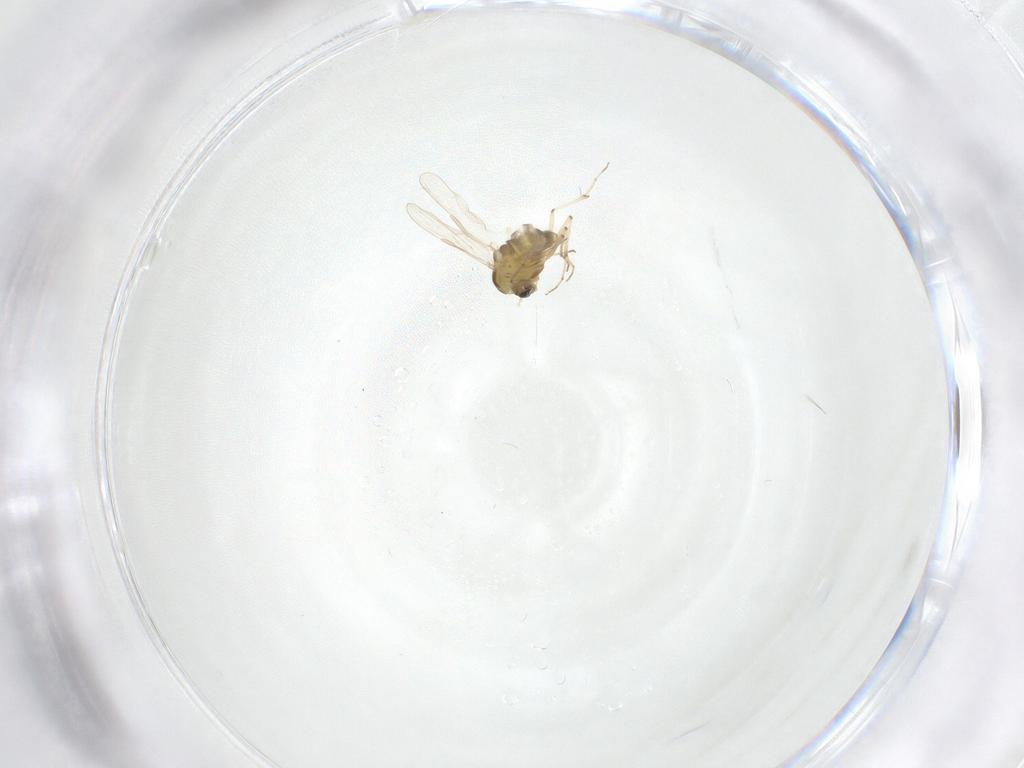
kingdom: Animalia
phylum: Arthropoda
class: Insecta
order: Diptera
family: Chironomidae
